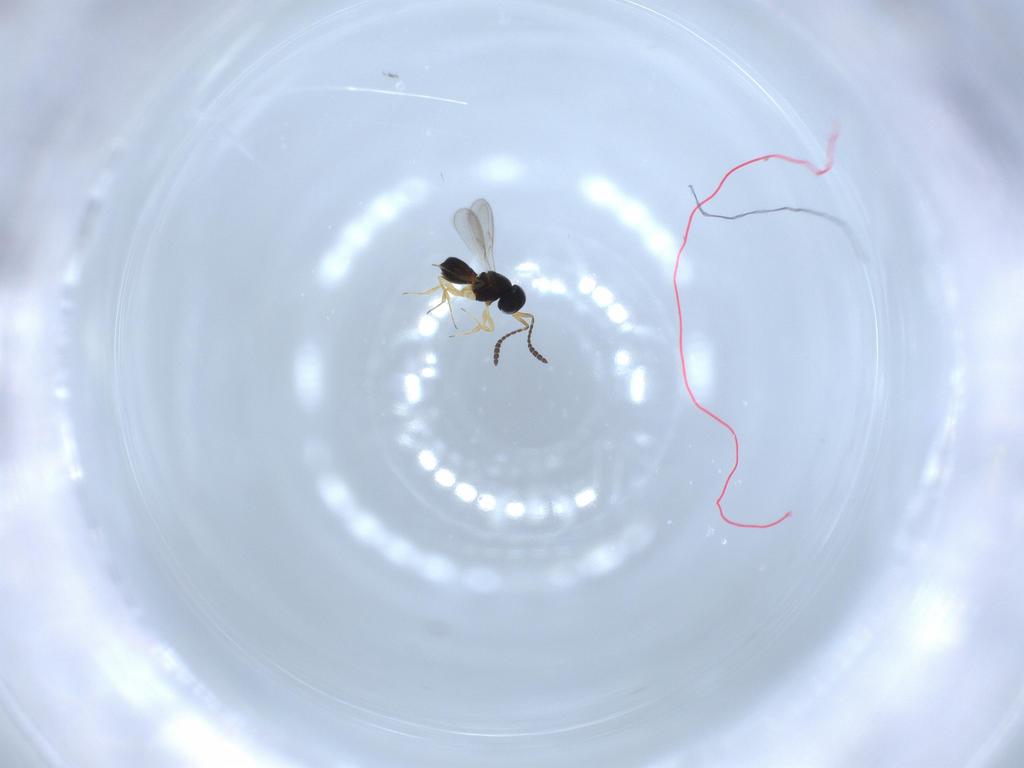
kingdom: Animalia
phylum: Arthropoda
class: Insecta
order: Hymenoptera
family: Scelionidae
